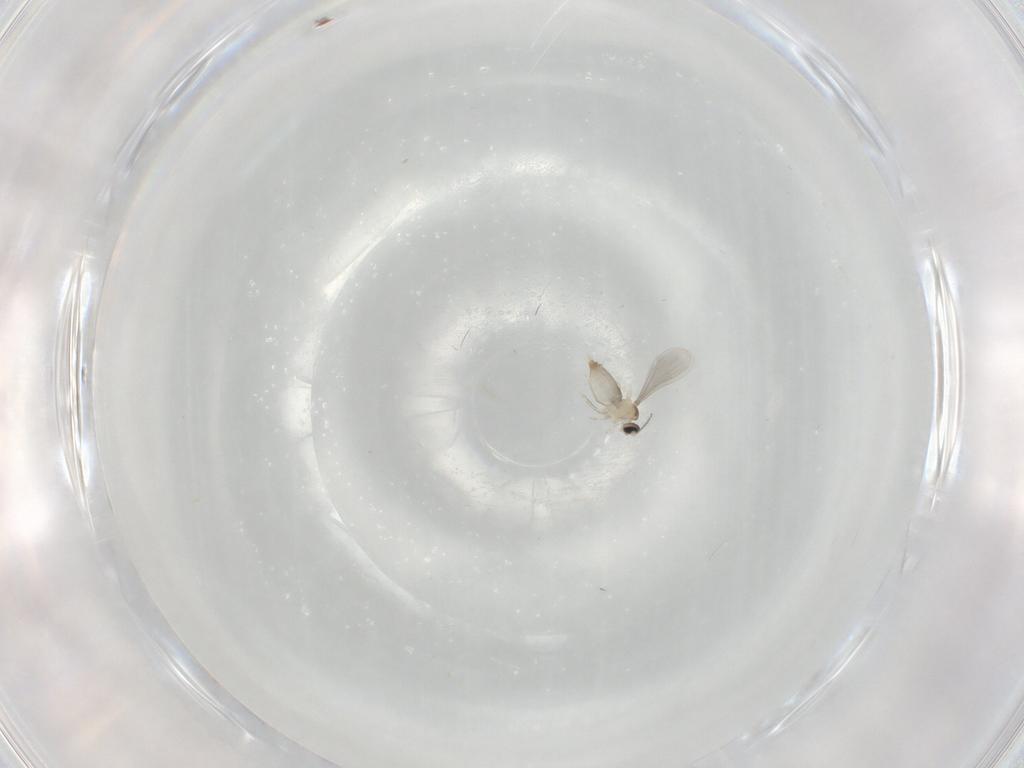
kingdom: Animalia
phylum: Arthropoda
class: Insecta
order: Diptera
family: Cecidomyiidae
